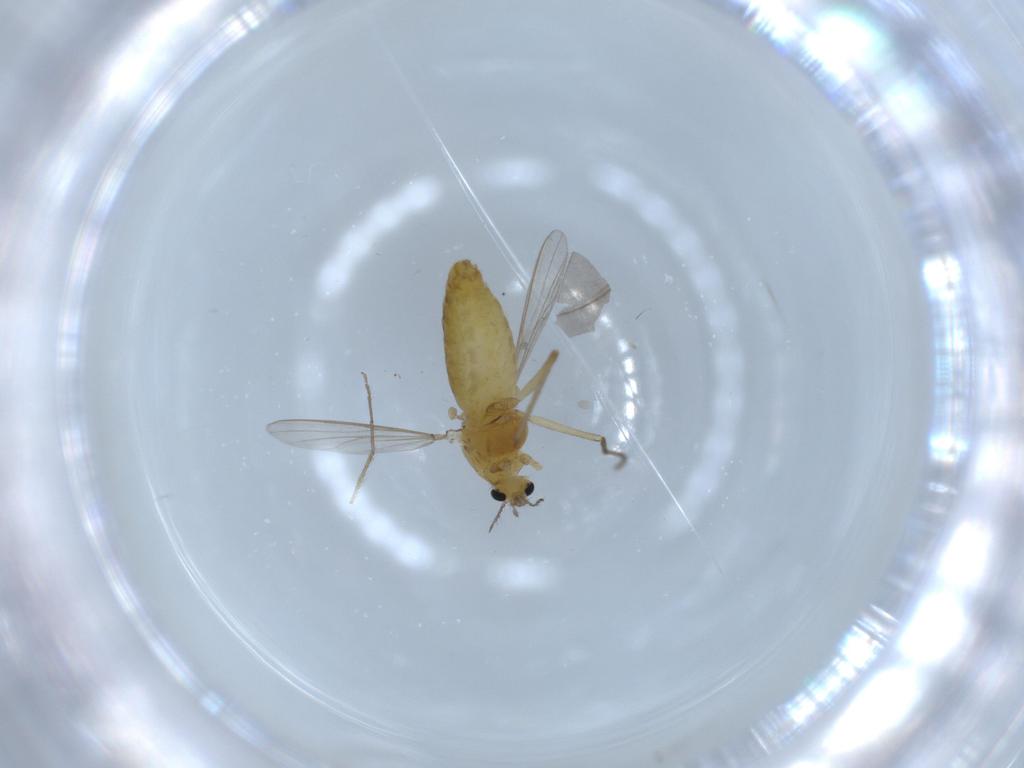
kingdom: Animalia
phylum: Arthropoda
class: Insecta
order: Diptera
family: Chironomidae
